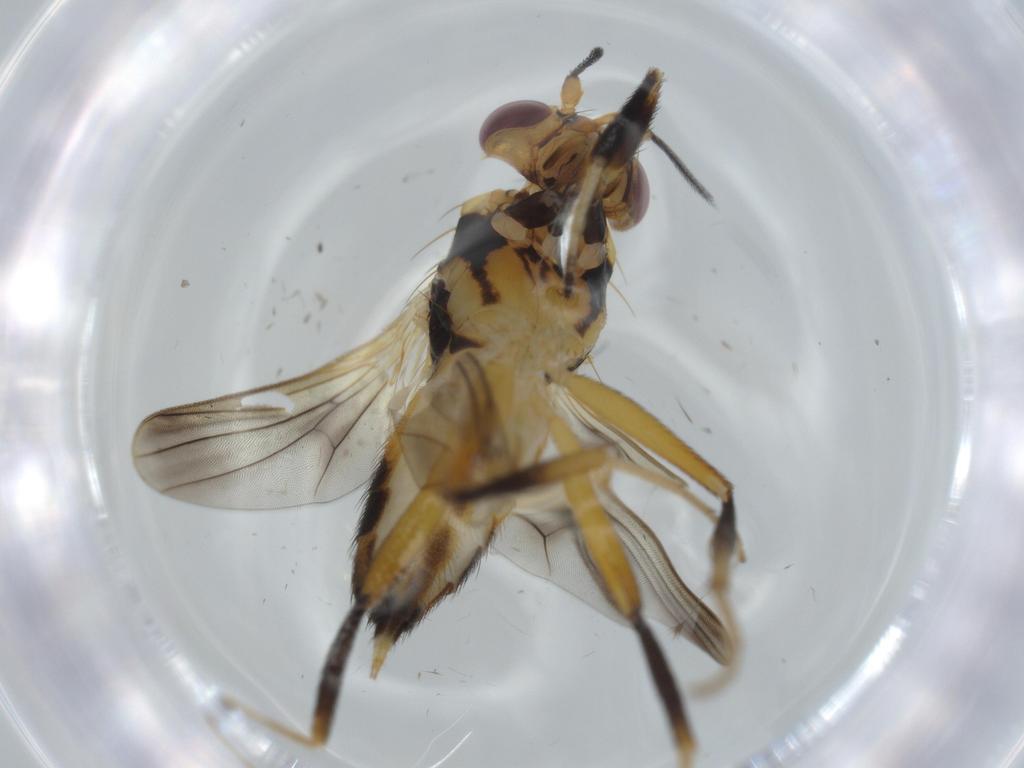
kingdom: Animalia
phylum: Arthropoda
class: Insecta
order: Diptera
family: Clusiidae
